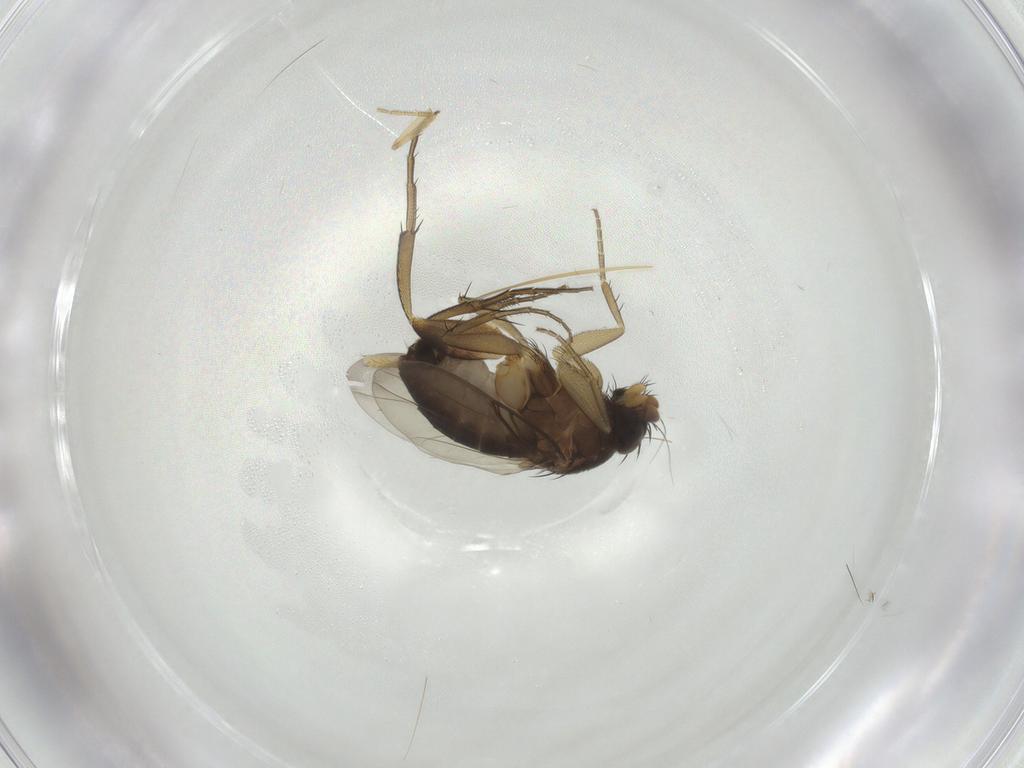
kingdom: Animalia
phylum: Arthropoda
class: Insecta
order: Diptera
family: Phoridae
